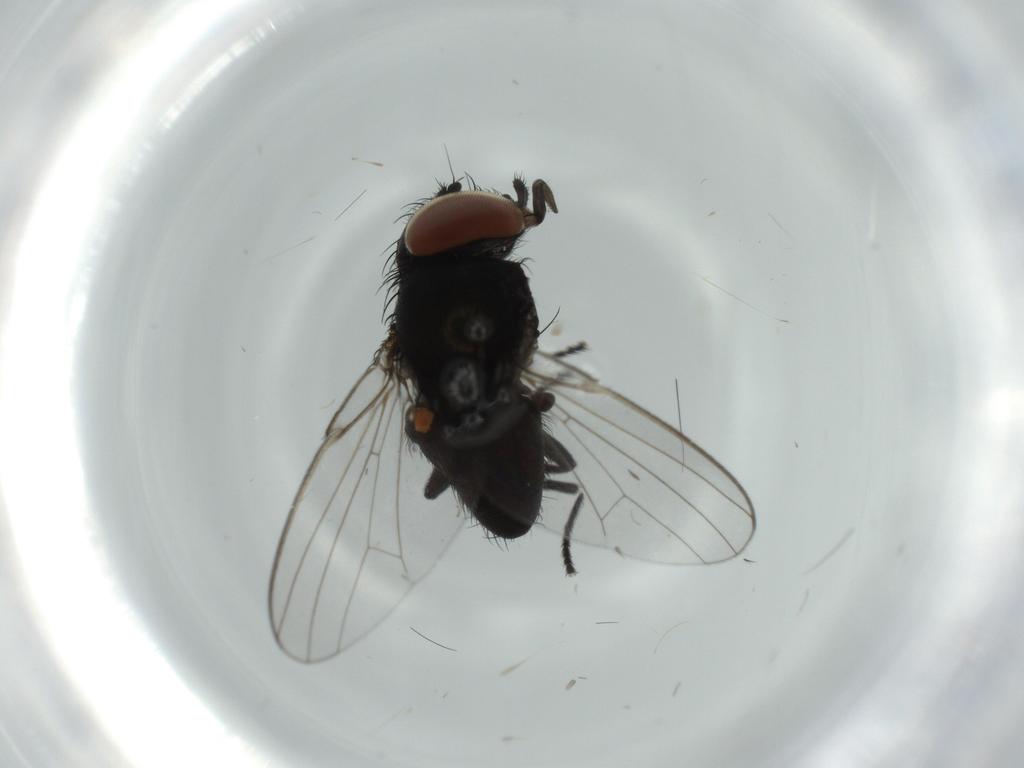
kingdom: Animalia
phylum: Arthropoda
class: Insecta
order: Diptera
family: Milichiidae
